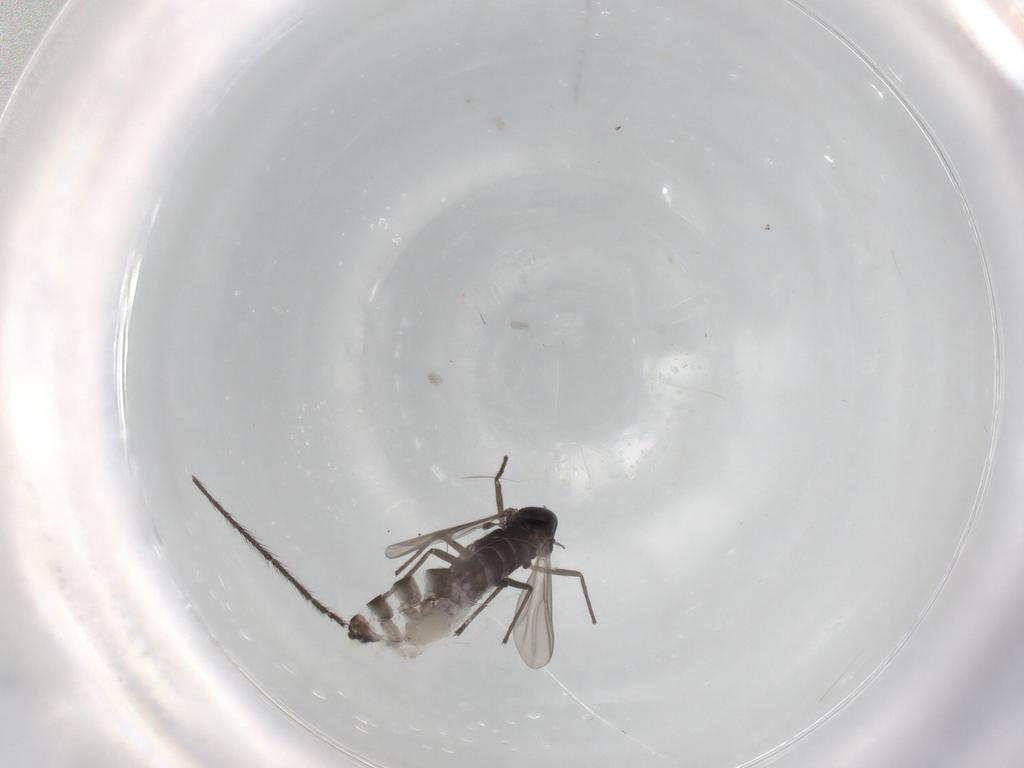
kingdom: Animalia
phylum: Arthropoda
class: Insecta
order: Diptera
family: Chironomidae
